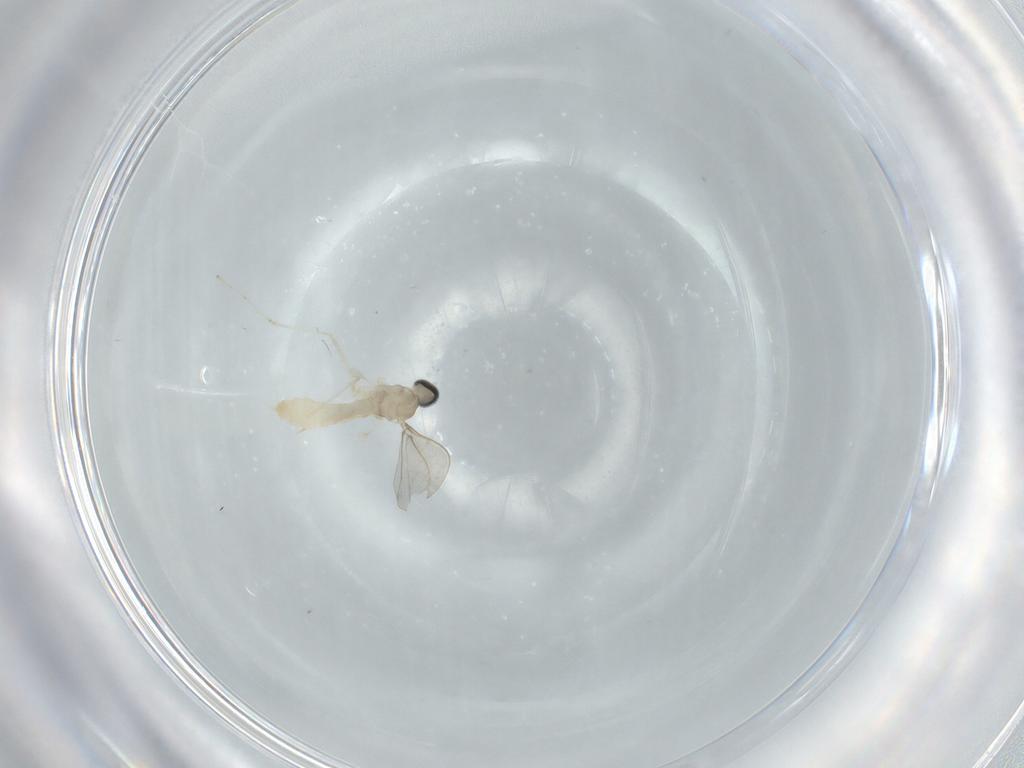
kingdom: Animalia
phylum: Arthropoda
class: Insecta
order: Diptera
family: Cecidomyiidae
